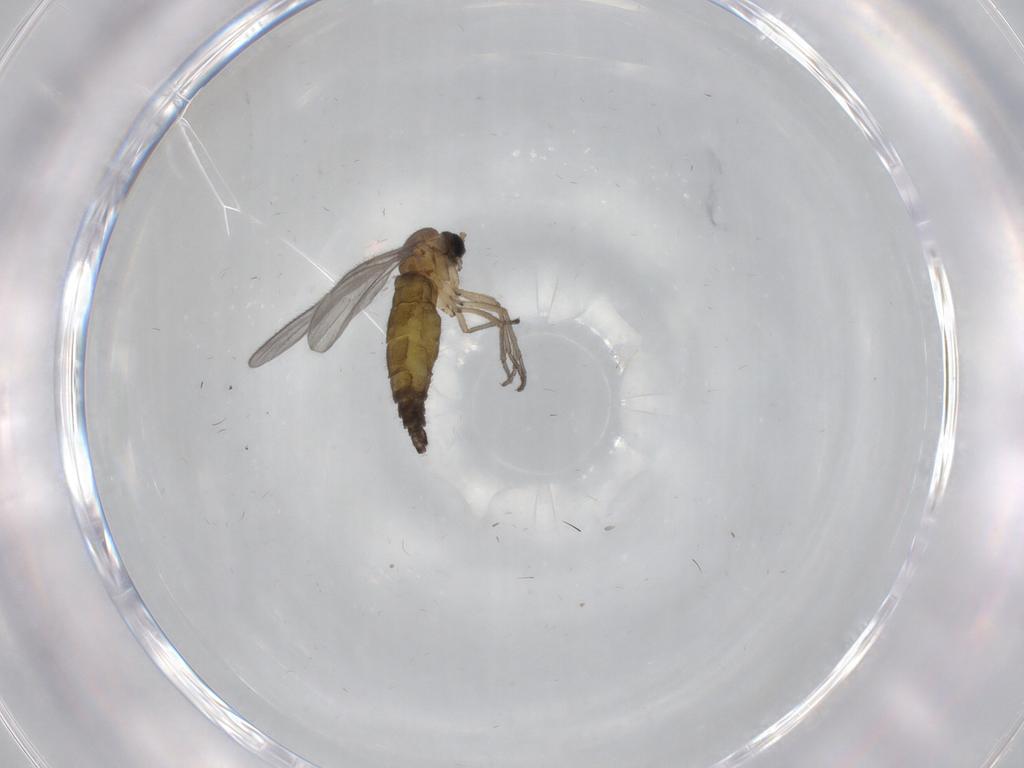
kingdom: Animalia
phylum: Arthropoda
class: Insecta
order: Diptera
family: Sciaridae
